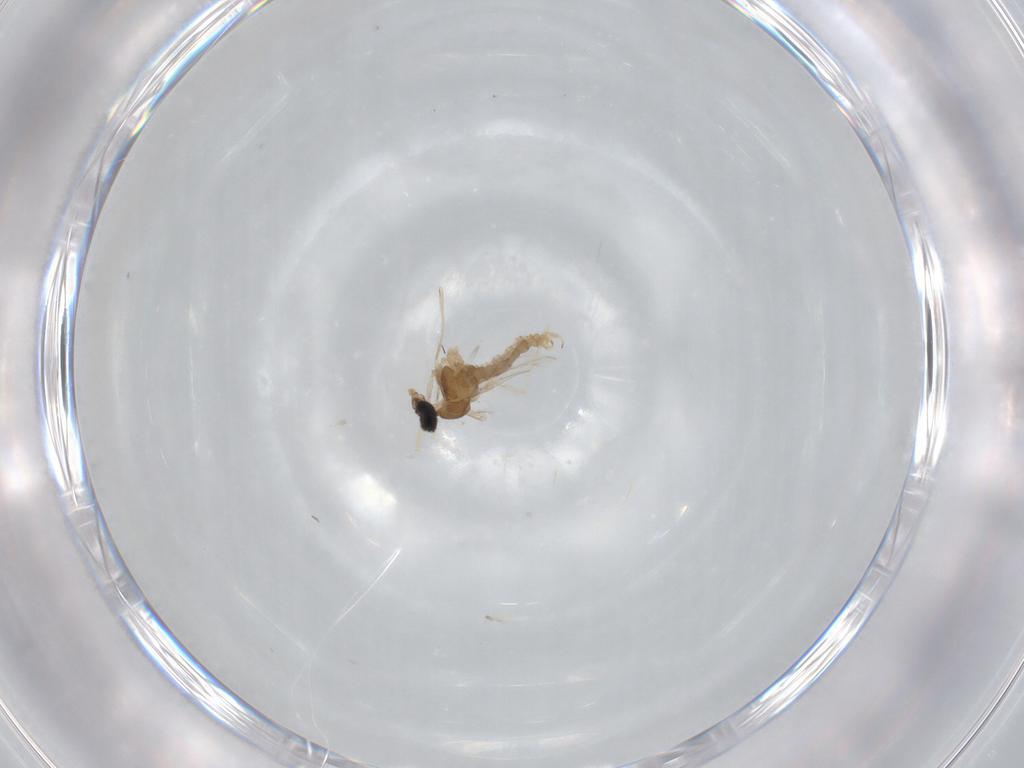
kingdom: Animalia
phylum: Arthropoda
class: Insecta
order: Diptera
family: Cecidomyiidae
